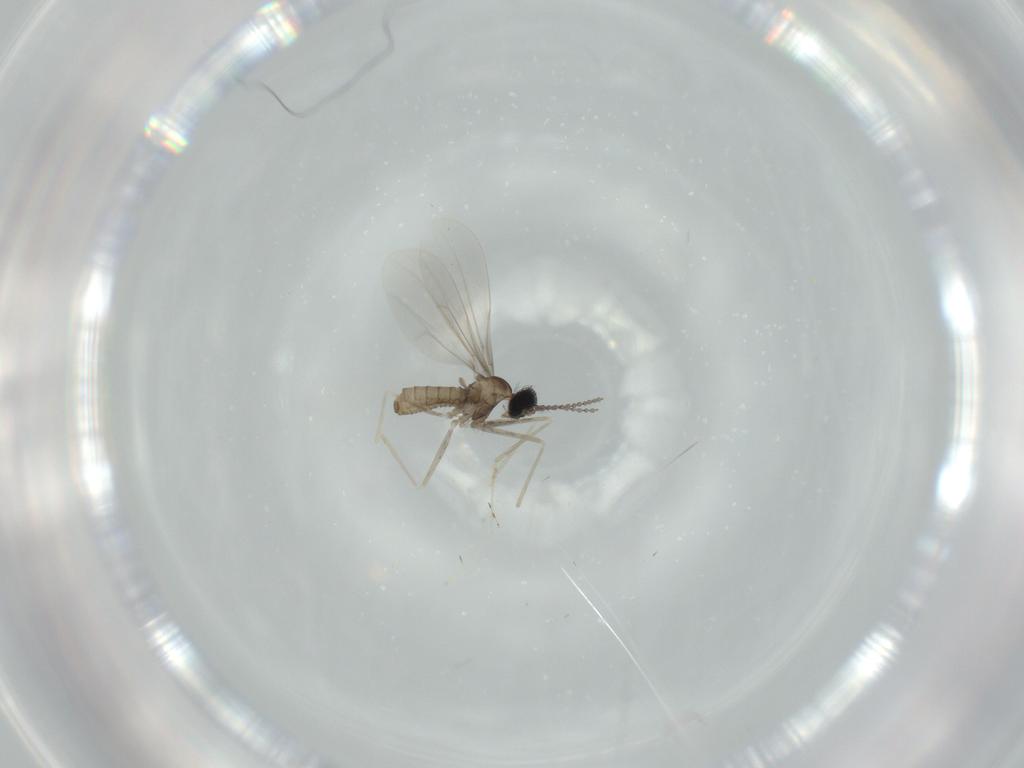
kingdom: Animalia
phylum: Arthropoda
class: Insecta
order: Diptera
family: Cecidomyiidae
